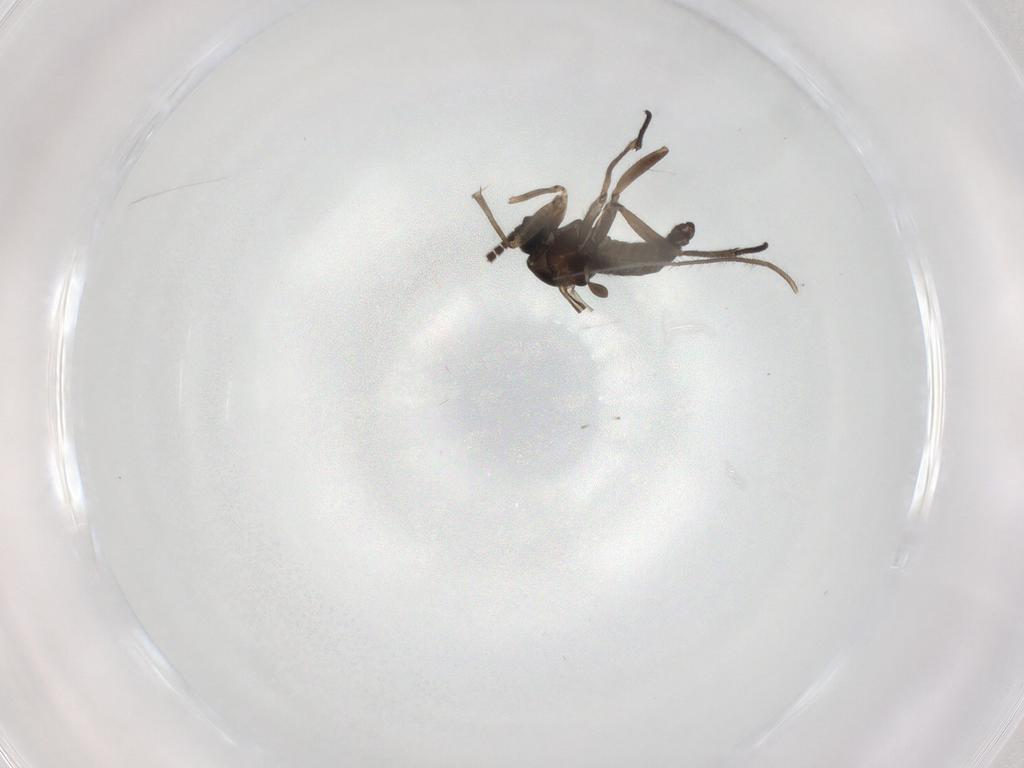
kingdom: Animalia
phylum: Arthropoda
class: Insecta
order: Diptera
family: Sciaridae
